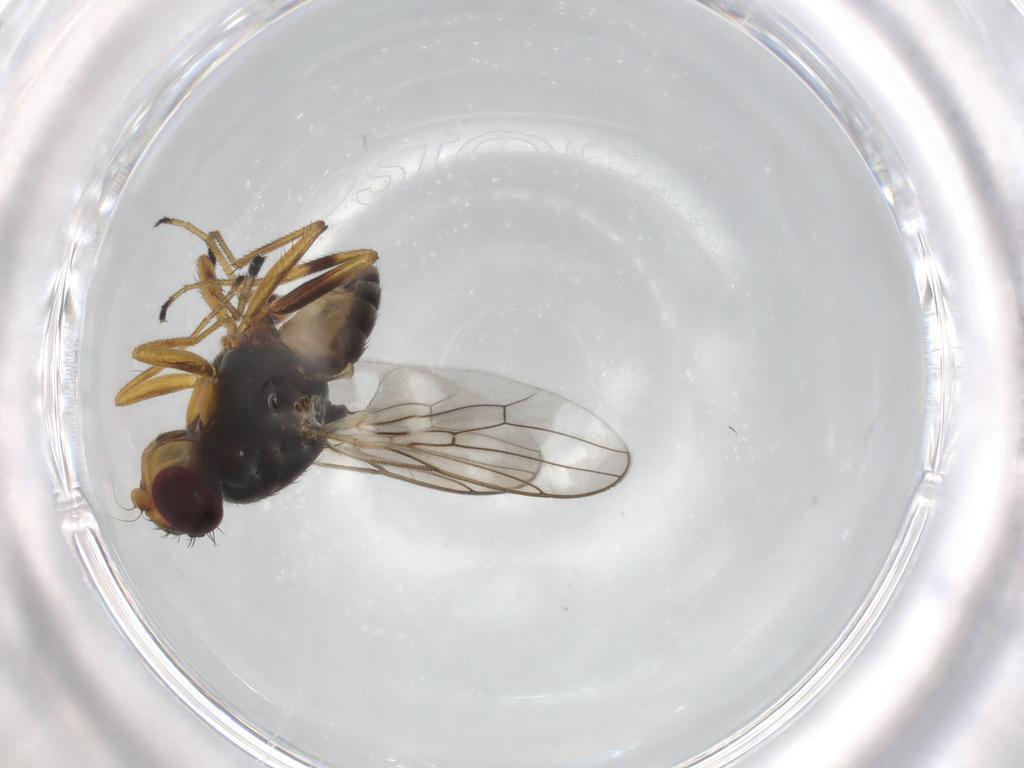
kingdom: Animalia
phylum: Arthropoda
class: Insecta
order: Diptera
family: Chloropidae
